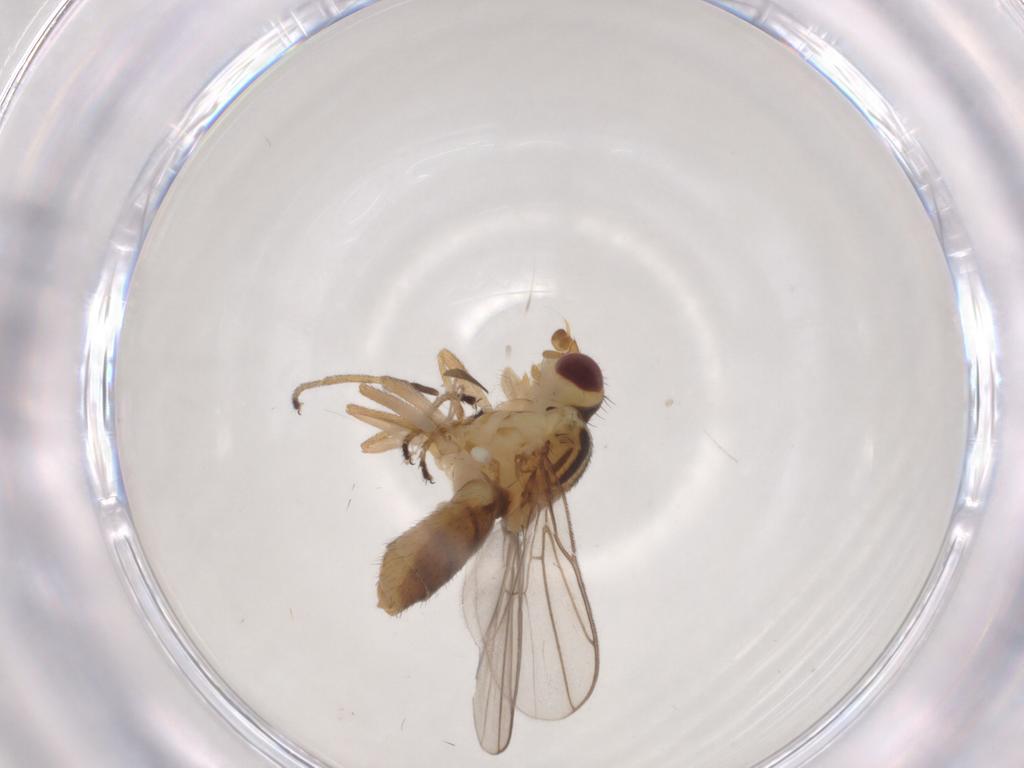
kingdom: Animalia
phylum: Arthropoda
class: Insecta
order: Diptera
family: Chloropidae
